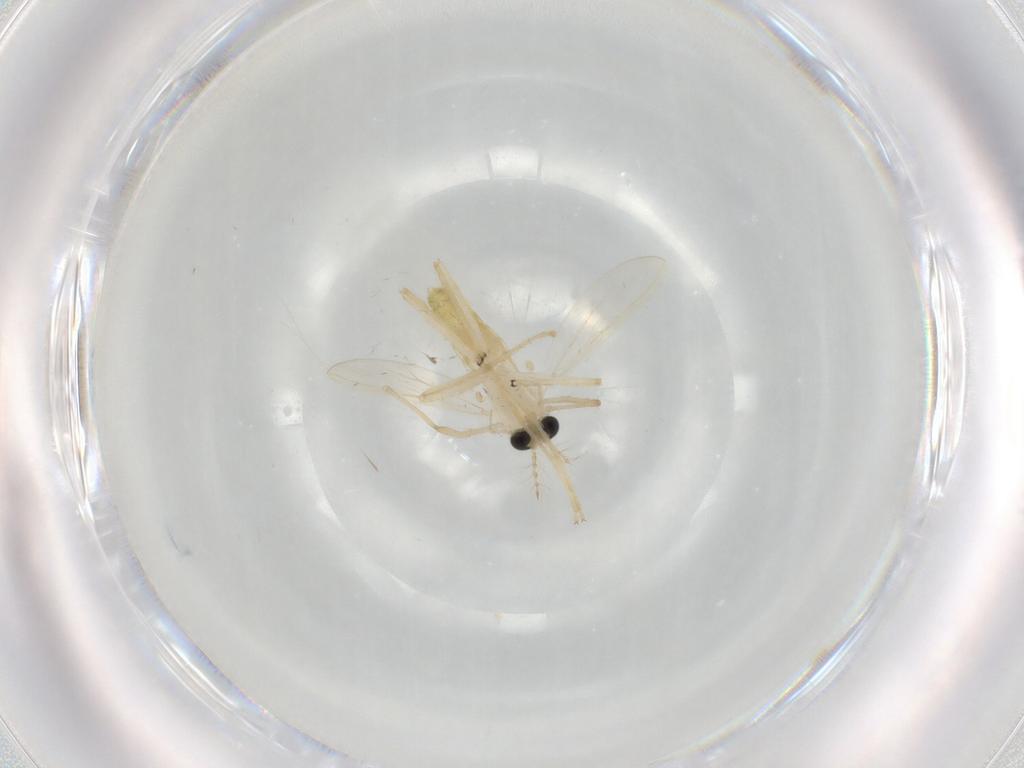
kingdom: Animalia
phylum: Arthropoda
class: Insecta
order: Diptera
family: Chironomidae
